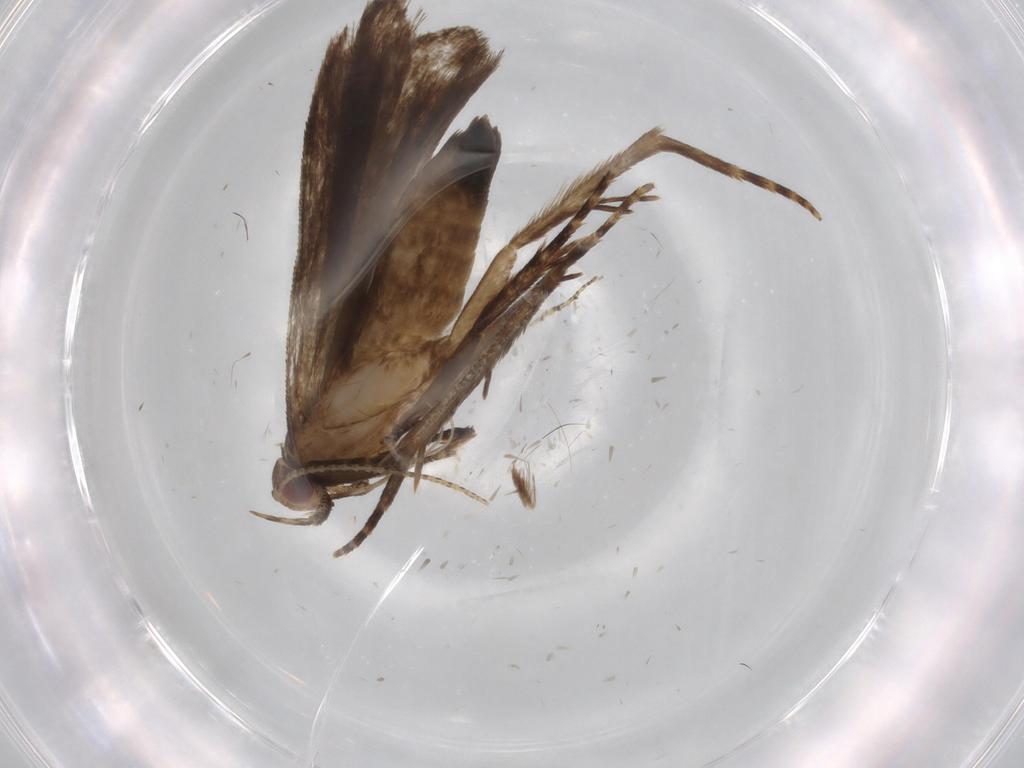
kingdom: Animalia
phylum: Arthropoda
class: Insecta
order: Lepidoptera
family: Gelechiidae
